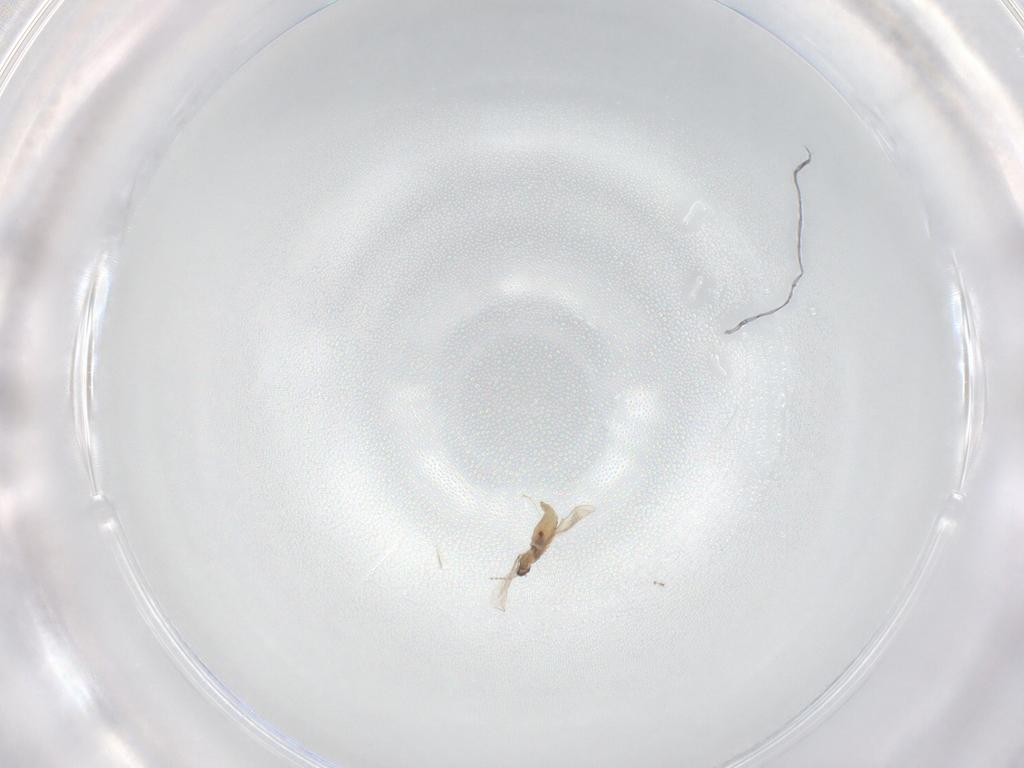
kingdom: Animalia
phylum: Arthropoda
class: Insecta
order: Diptera
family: Cecidomyiidae
